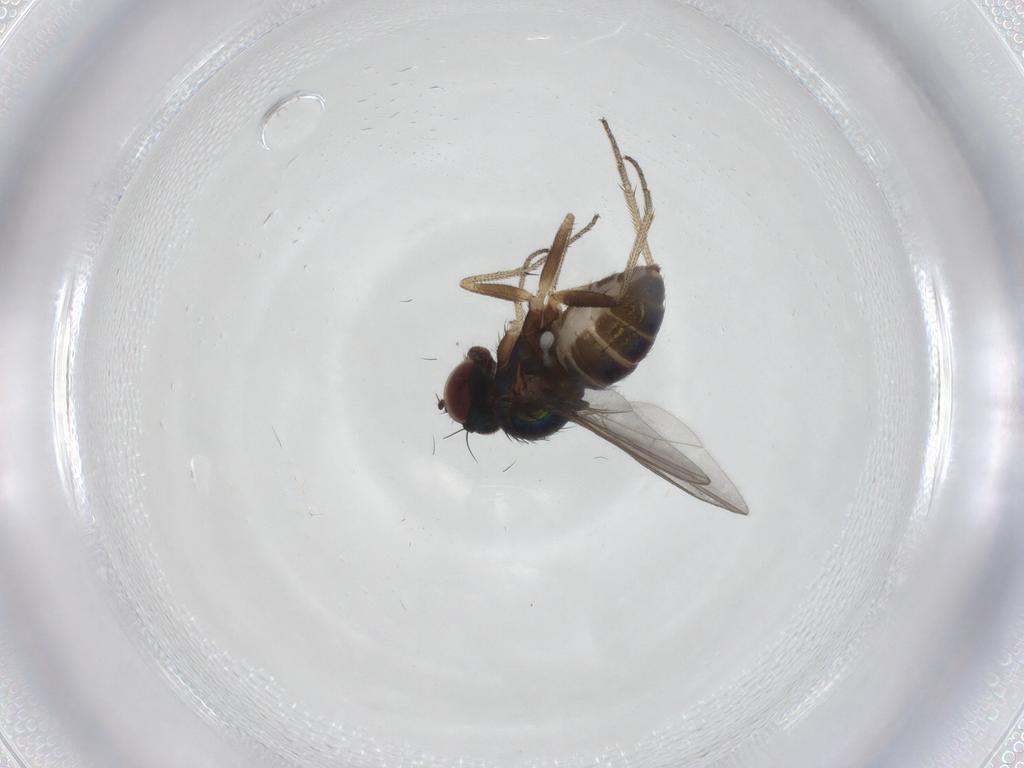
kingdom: Animalia
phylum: Arthropoda
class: Insecta
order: Diptera
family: Dolichopodidae
